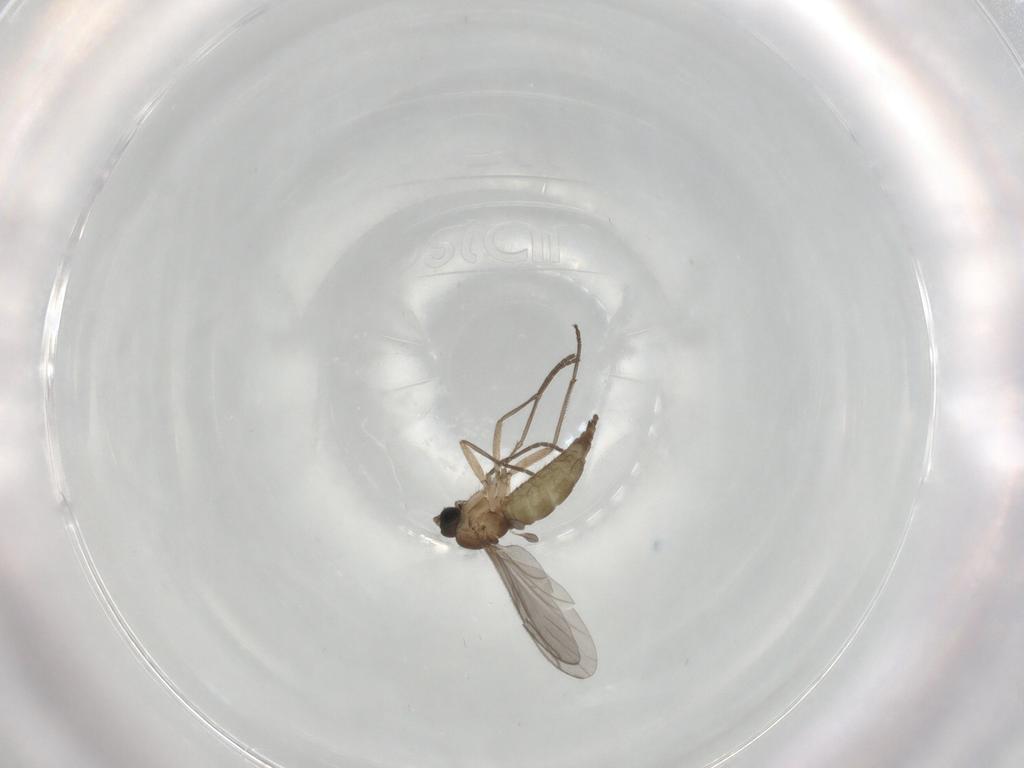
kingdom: Animalia
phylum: Arthropoda
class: Insecta
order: Diptera
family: Sciaridae
